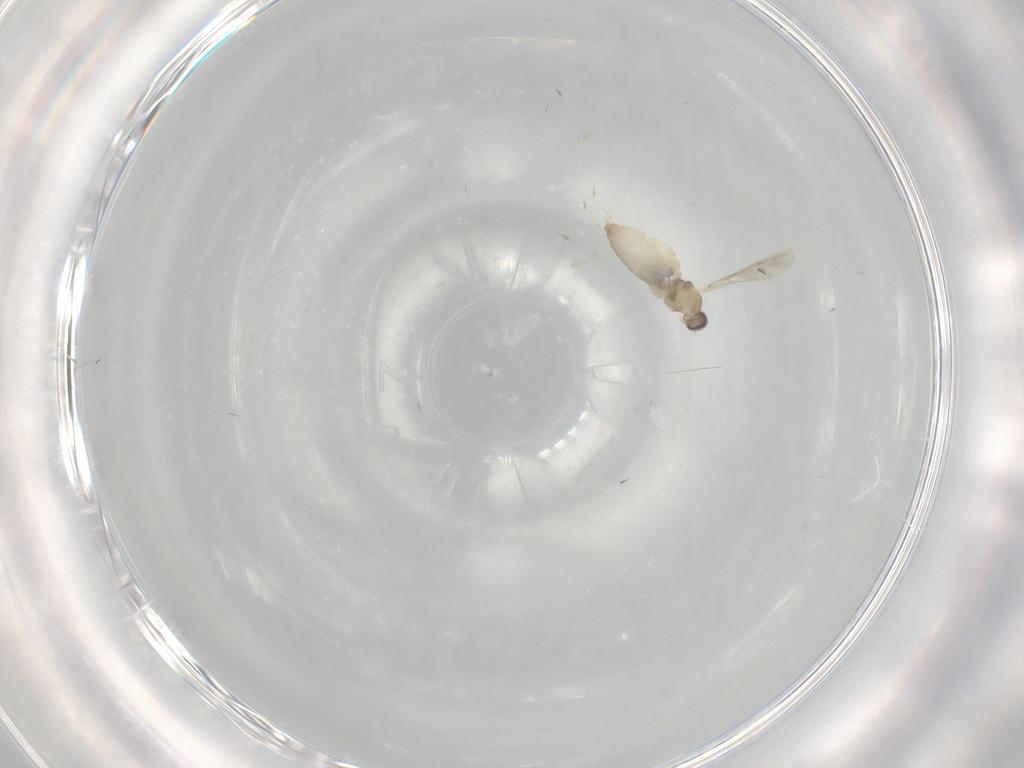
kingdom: Animalia
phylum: Arthropoda
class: Insecta
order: Diptera
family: Cecidomyiidae
